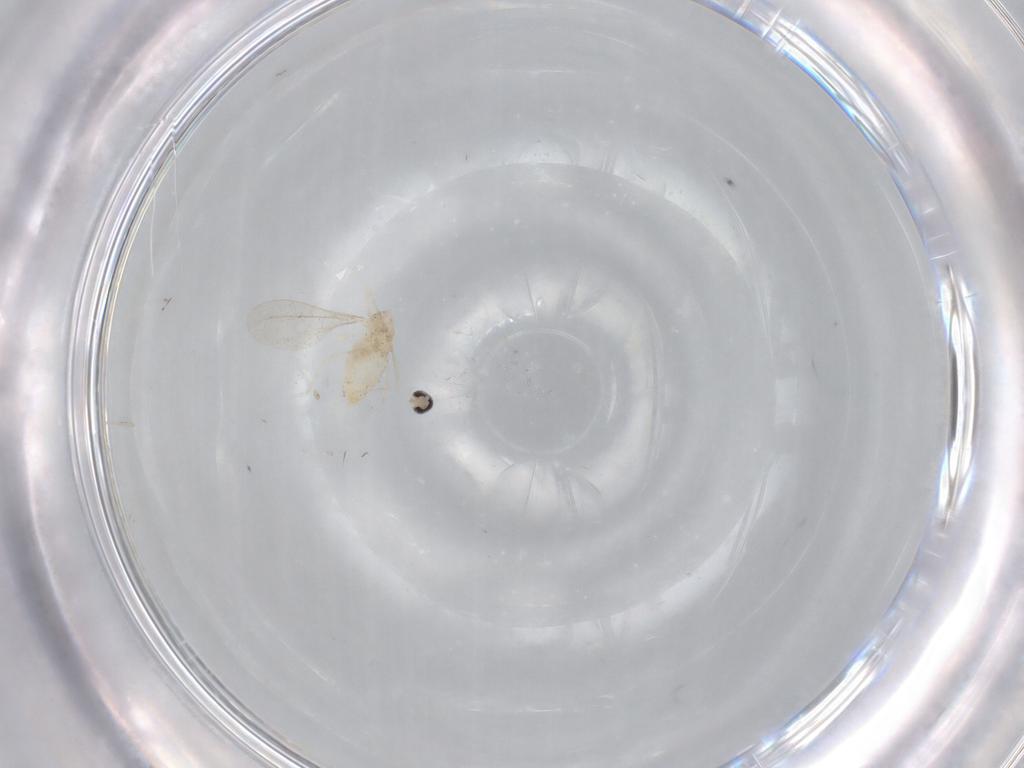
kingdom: Animalia
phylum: Arthropoda
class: Insecta
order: Diptera
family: Cecidomyiidae
